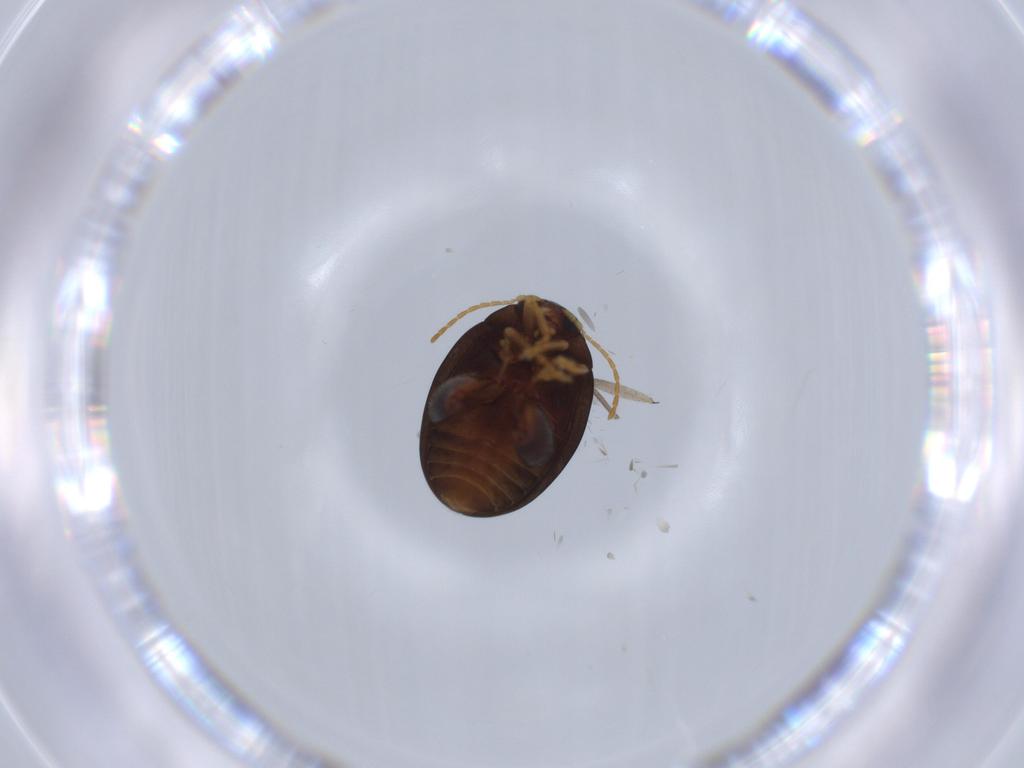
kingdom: Animalia
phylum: Arthropoda
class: Insecta
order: Coleoptera
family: Chrysomelidae
